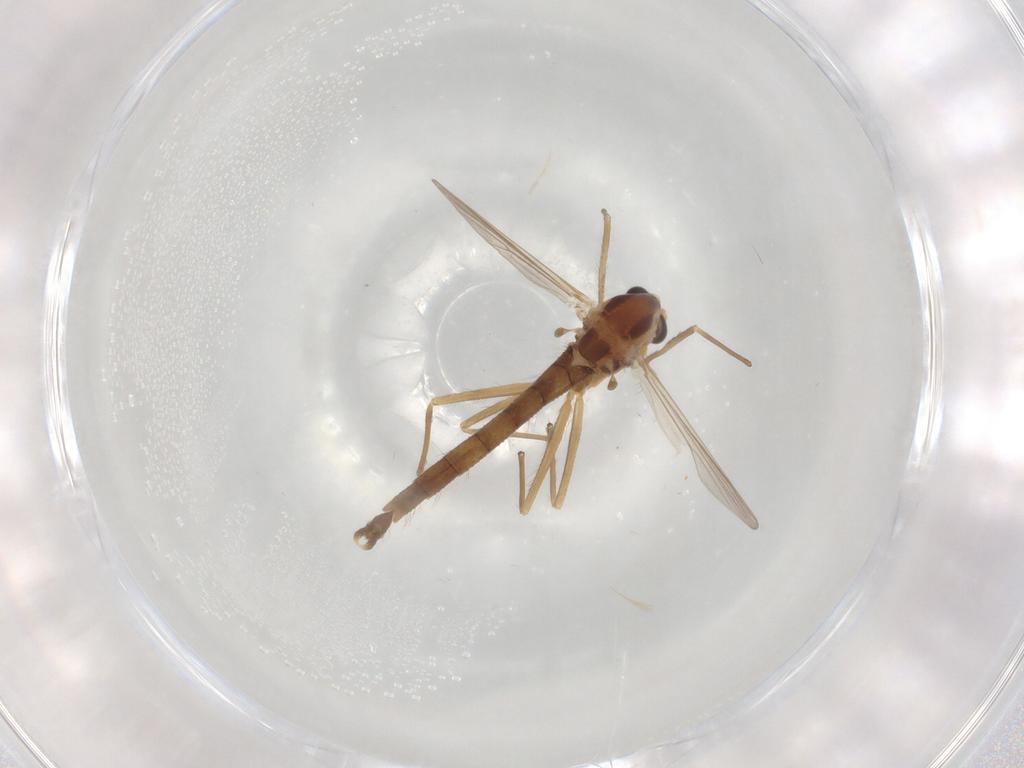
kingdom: Animalia
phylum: Arthropoda
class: Insecta
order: Diptera
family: Chironomidae
